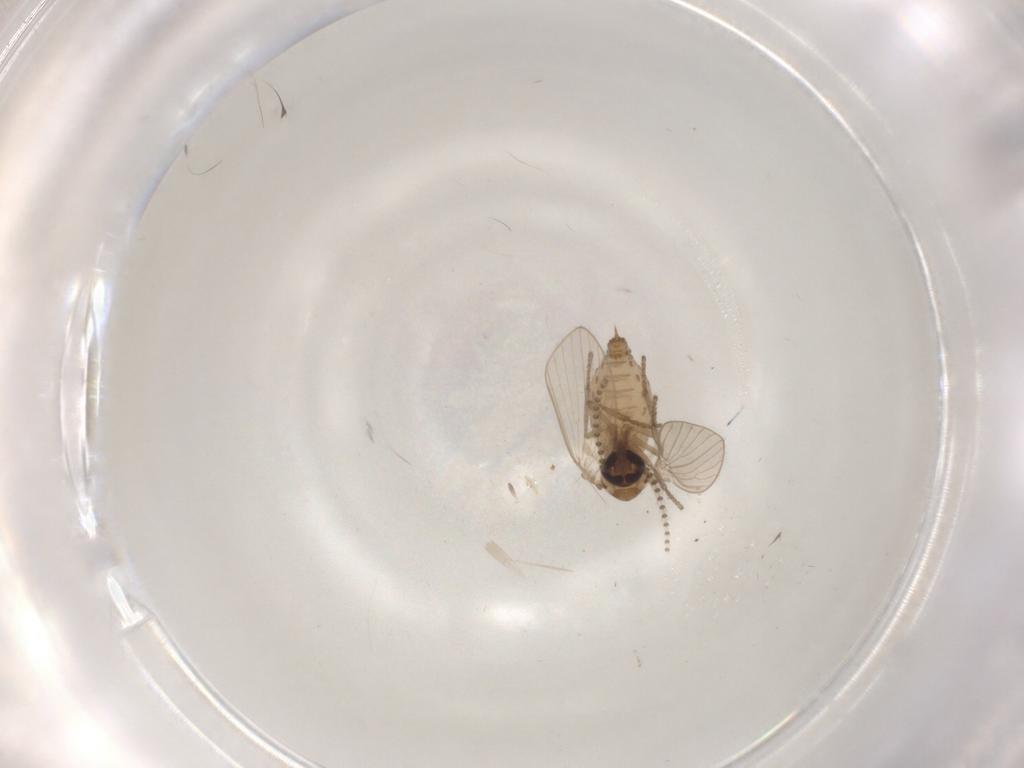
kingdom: Animalia
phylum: Arthropoda
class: Insecta
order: Diptera
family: Psychodidae
